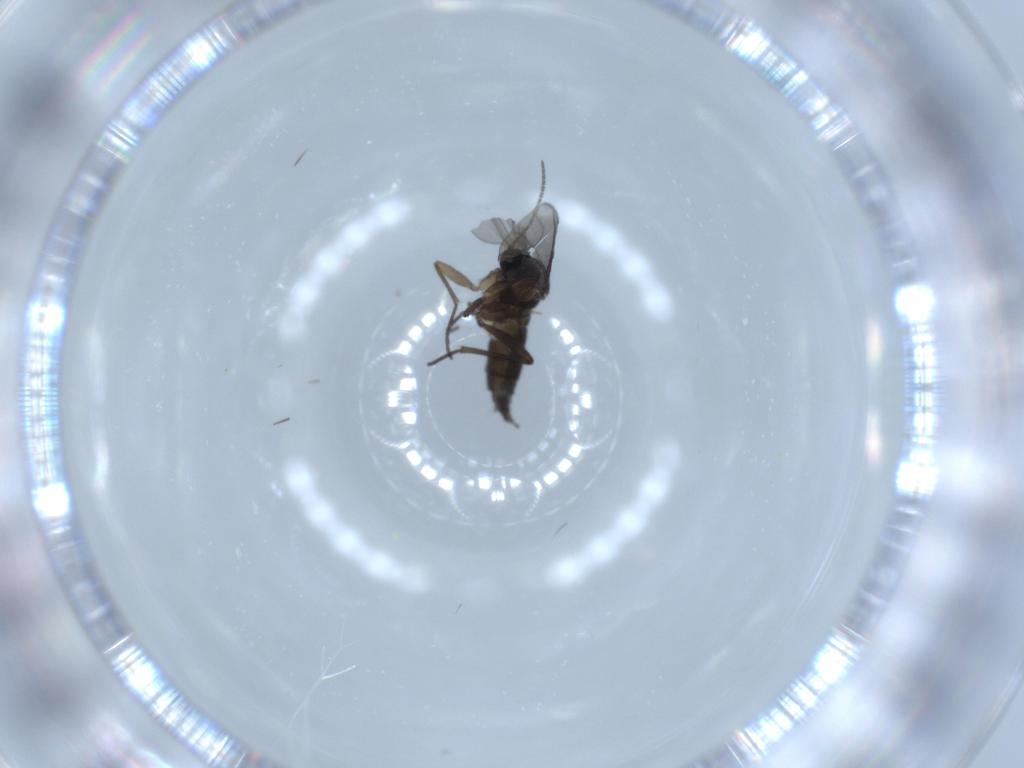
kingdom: Animalia
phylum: Arthropoda
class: Insecta
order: Diptera
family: Sciaridae
